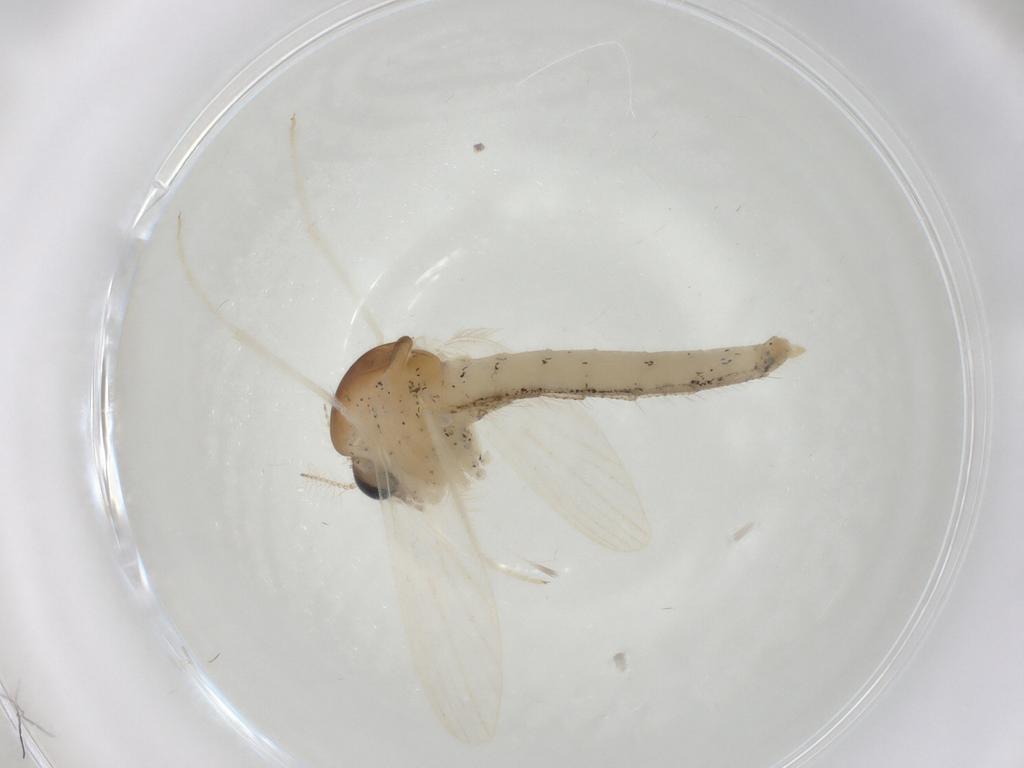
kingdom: Animalia
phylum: Arthropoda
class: Insecta
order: Diptera
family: Chaoboridae
